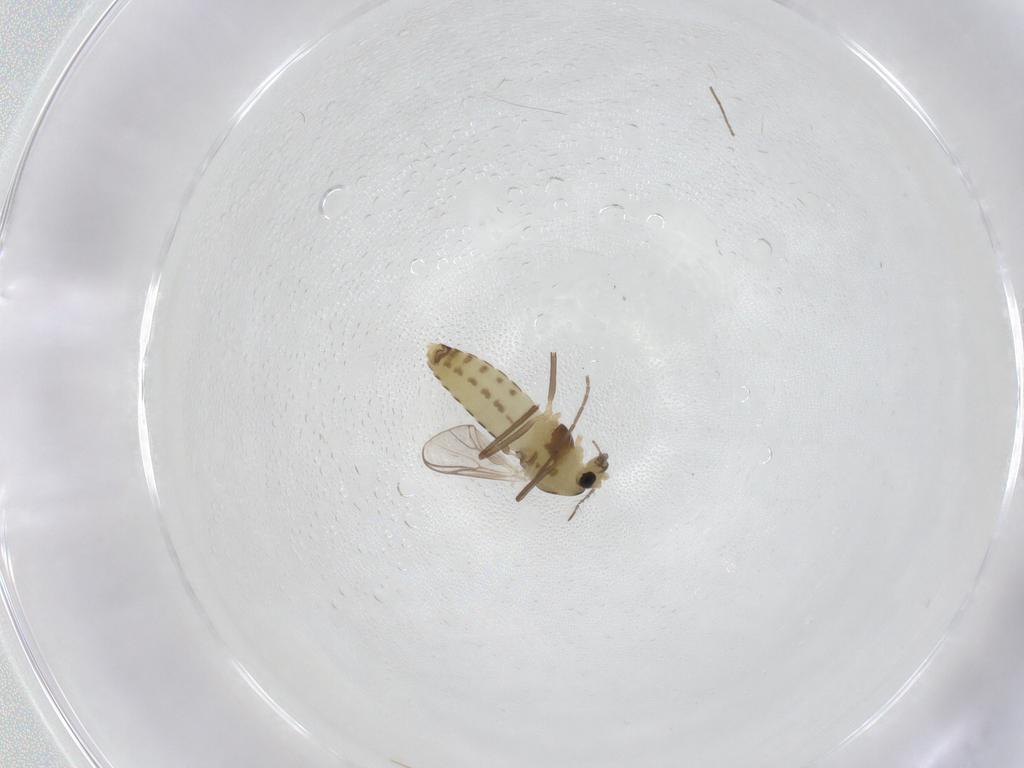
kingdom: Animalia
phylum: Arthropoda
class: Insecta
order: Diptera
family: Chironomidae
